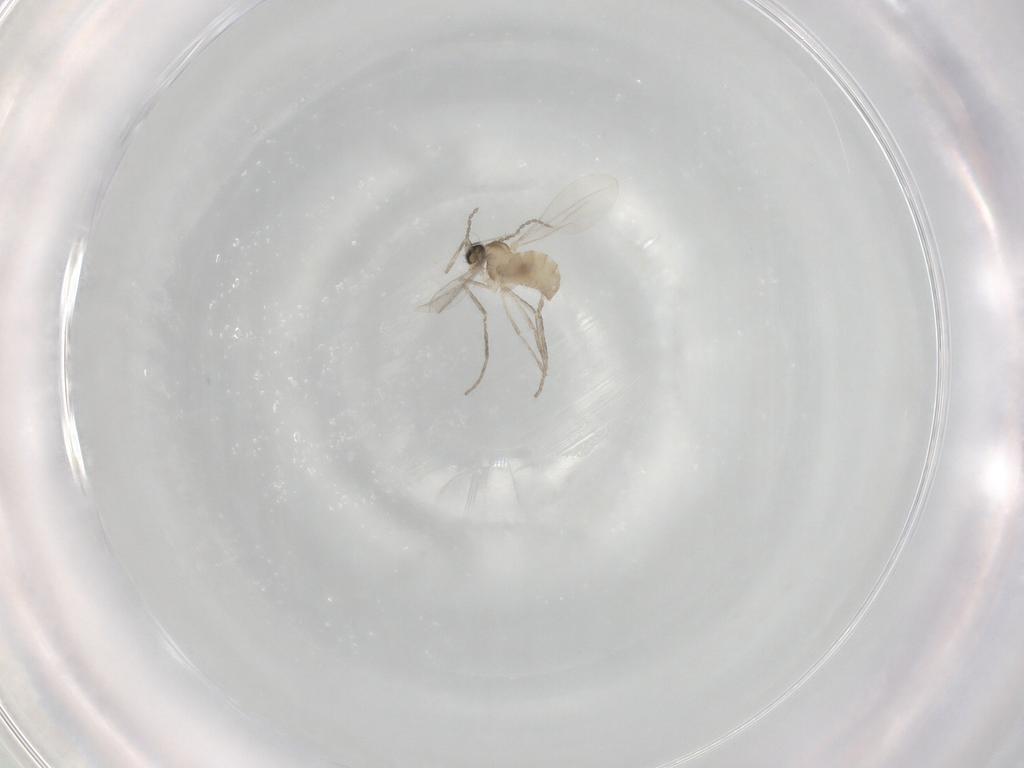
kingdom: Animalia
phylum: Arthropoda
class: Insecta
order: Diptera
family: Cecidomyiidae
